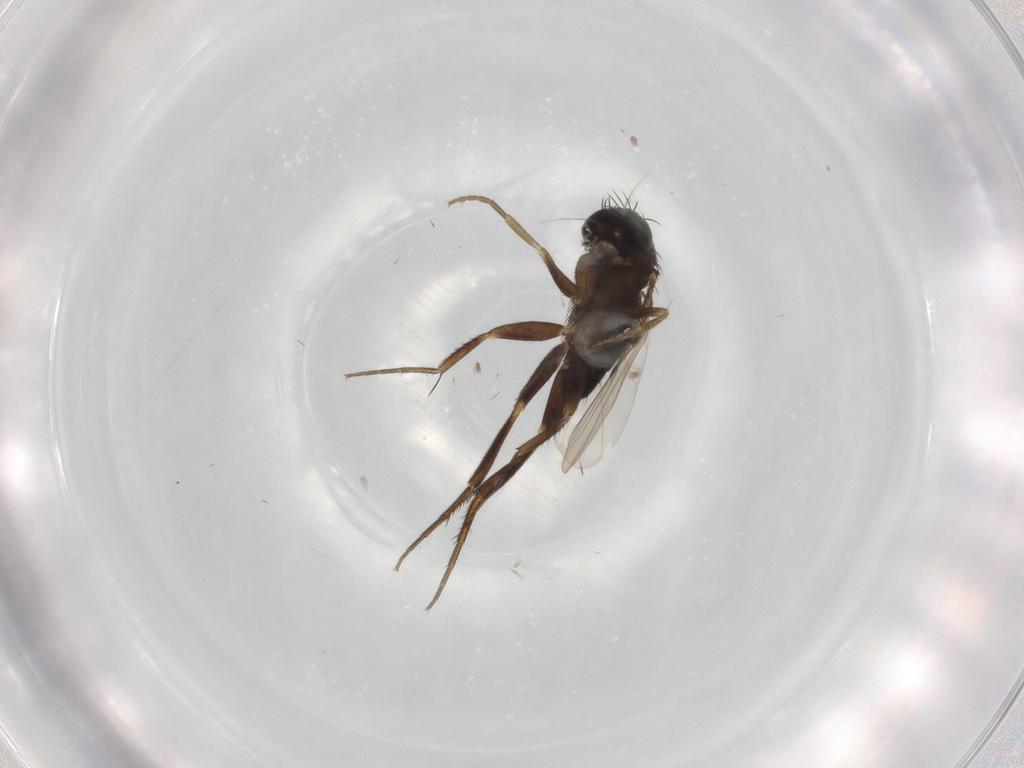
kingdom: Animalia
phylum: Arthropoda
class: Insecta
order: Diptera
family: Phoridae
